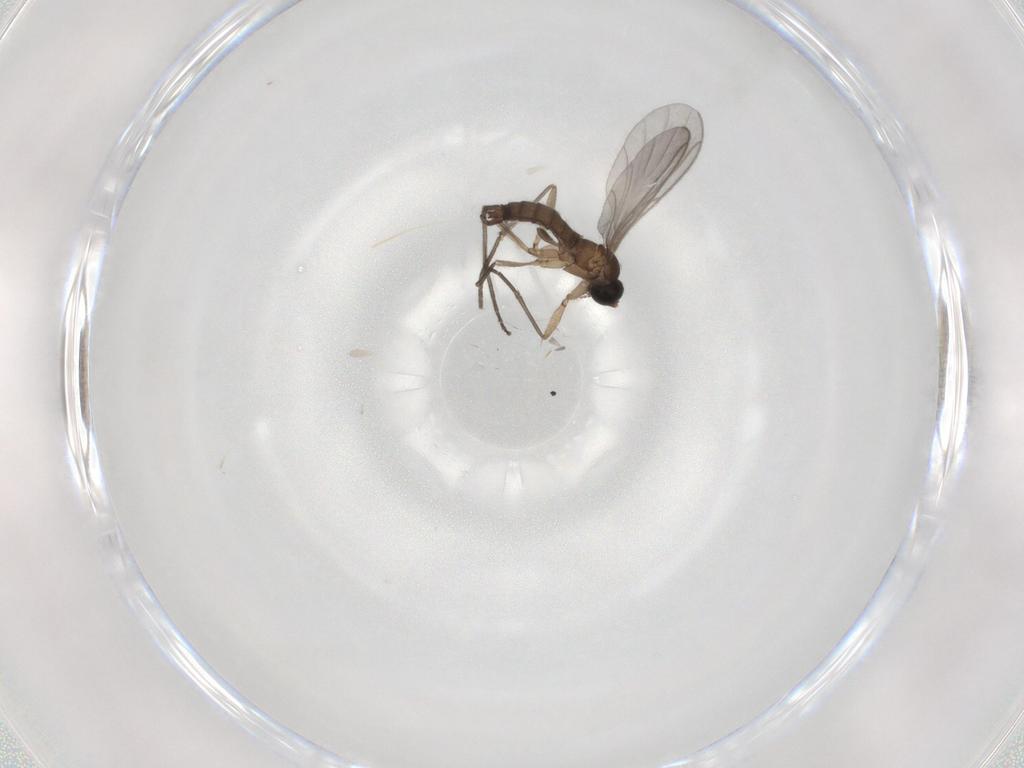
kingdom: Animalia
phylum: Arthropoda
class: Insecta
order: Diptera
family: Sciaridae
